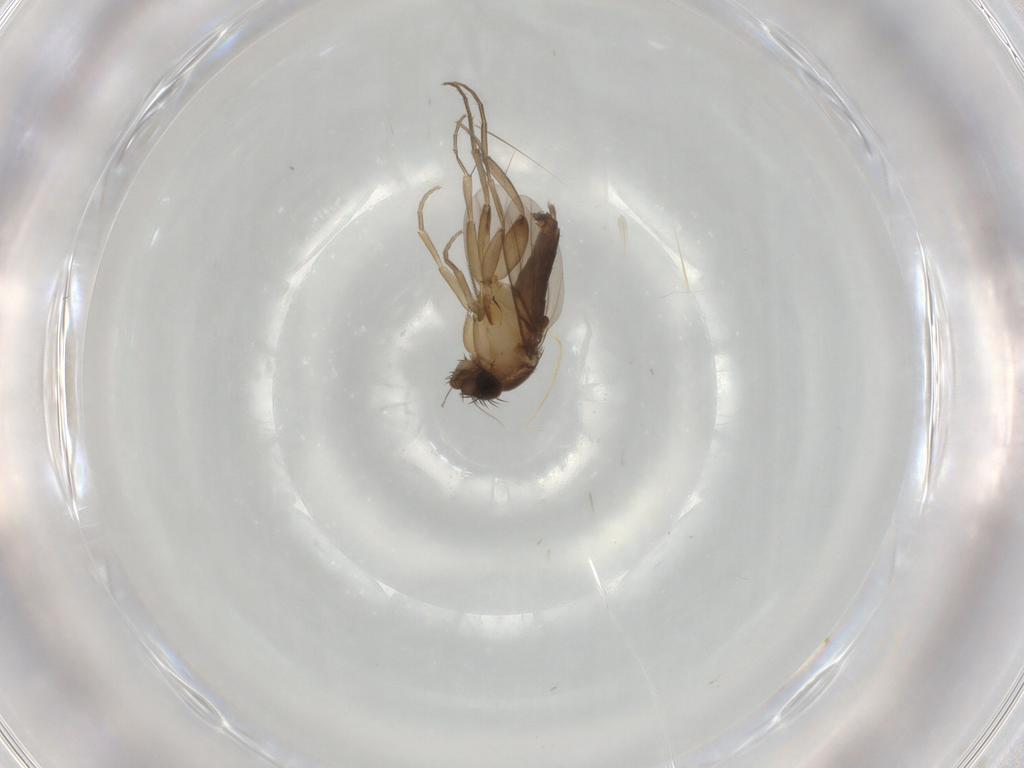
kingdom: Animalia
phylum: Arthropoda
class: Insecta
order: Diptera
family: Phoridae
